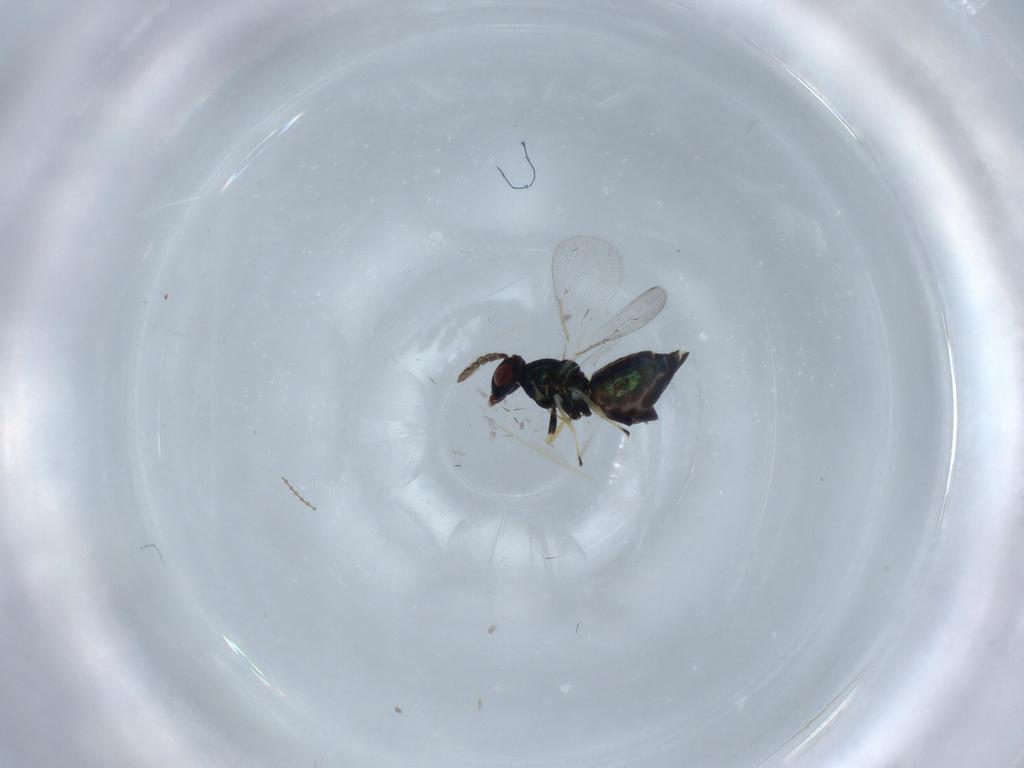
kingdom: Animalia
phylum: Arthropoda
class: Insecta
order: Hymenoptera
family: Eulophidae
